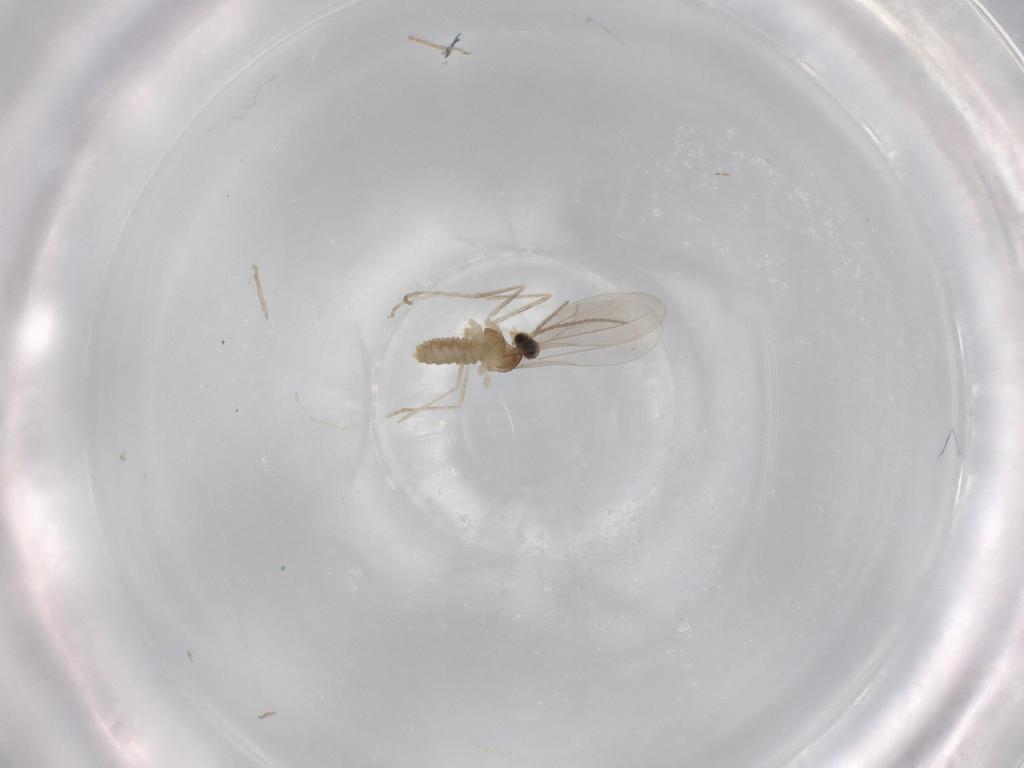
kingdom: Animalia
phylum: Arthropoda
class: Insecta
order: Diptera
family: Cecidomyiidae
